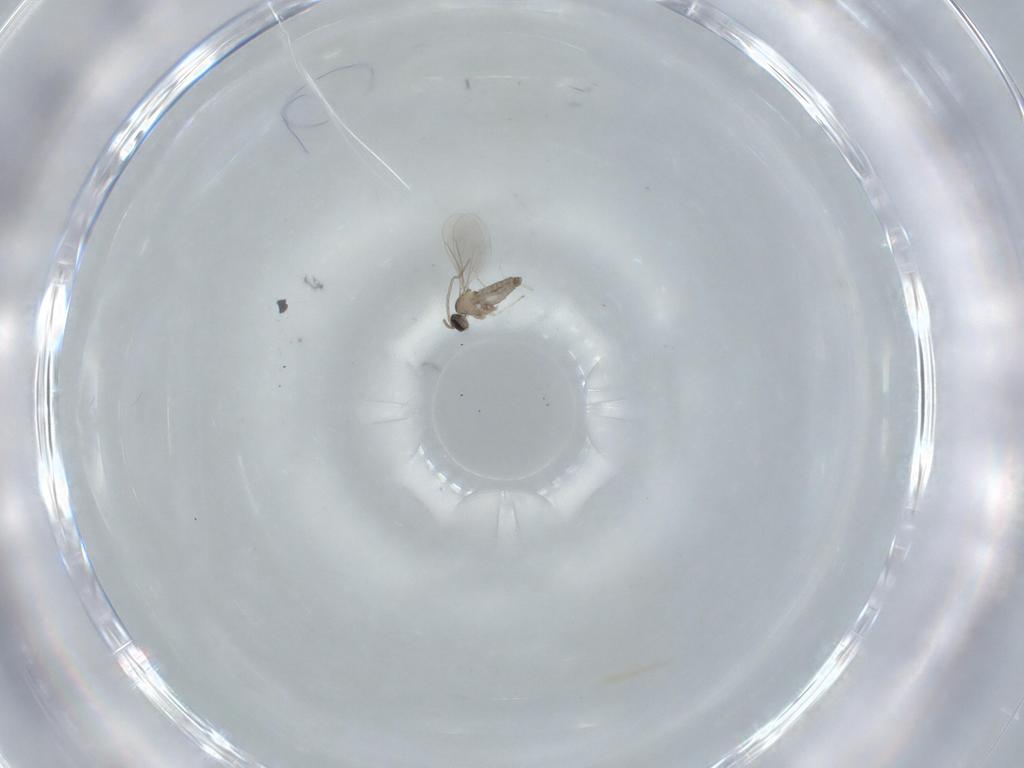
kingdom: Animalia
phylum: Arthropoda
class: Insecta
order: Diptera
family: Cecidomyiidae
